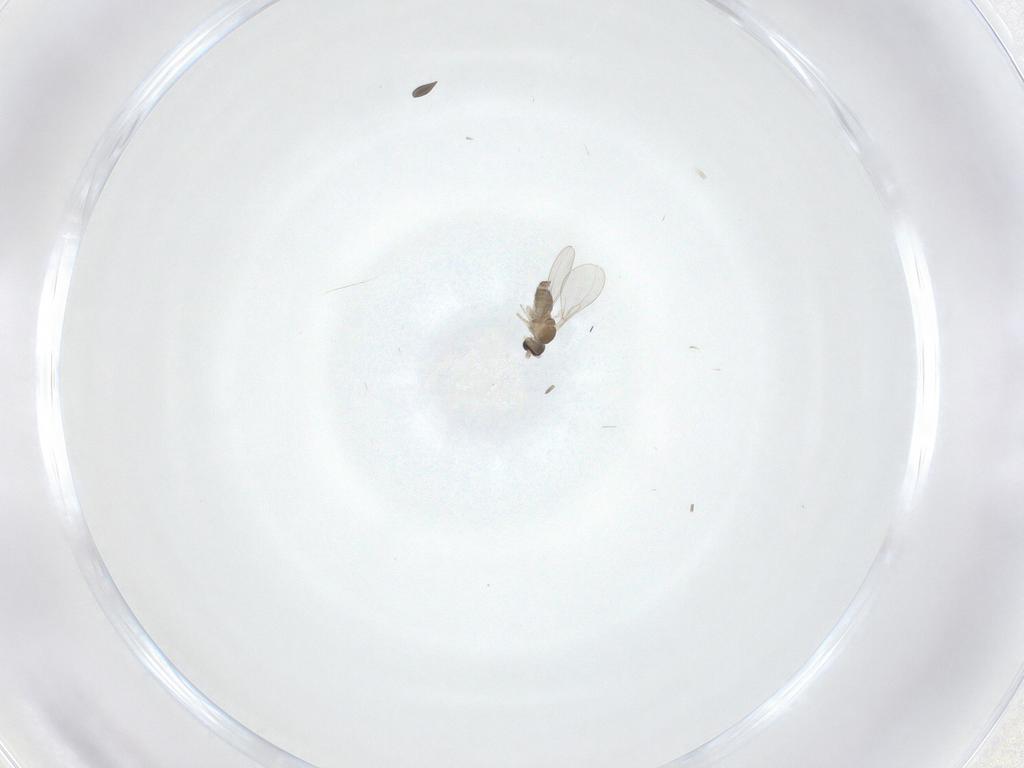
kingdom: Animalia
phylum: Arthropoda
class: Insecta
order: Diptera
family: Sciaridae
